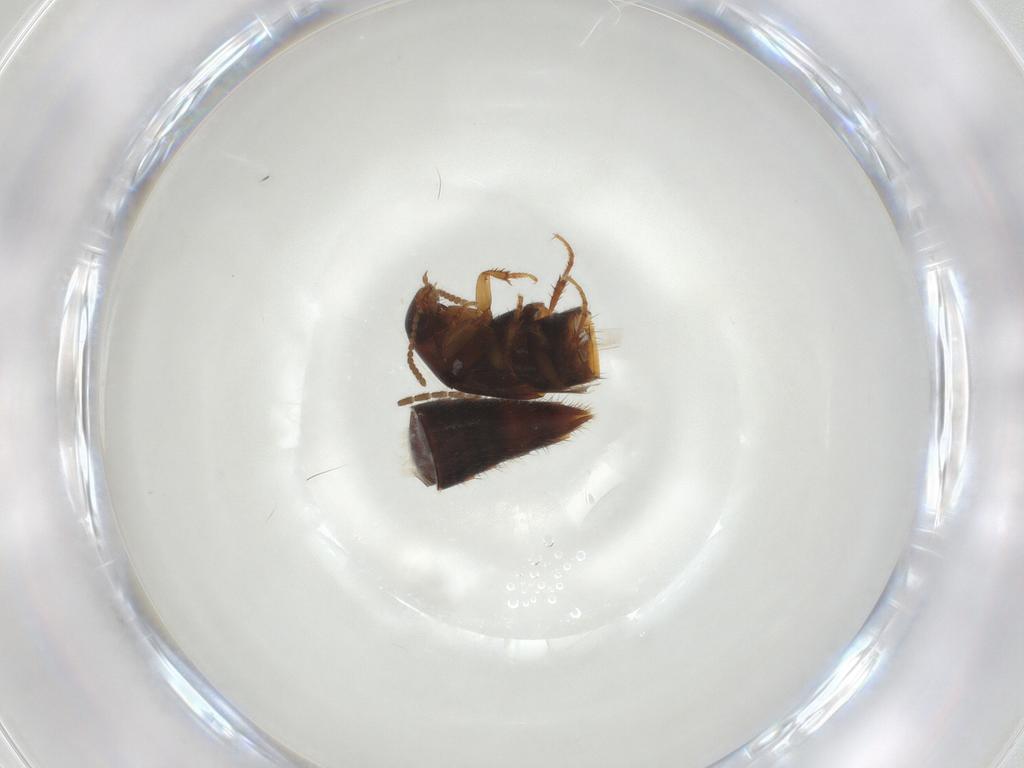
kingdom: Animalia
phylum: Arthropoda
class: Insecta
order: Coleoptera
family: Staphylinidae
